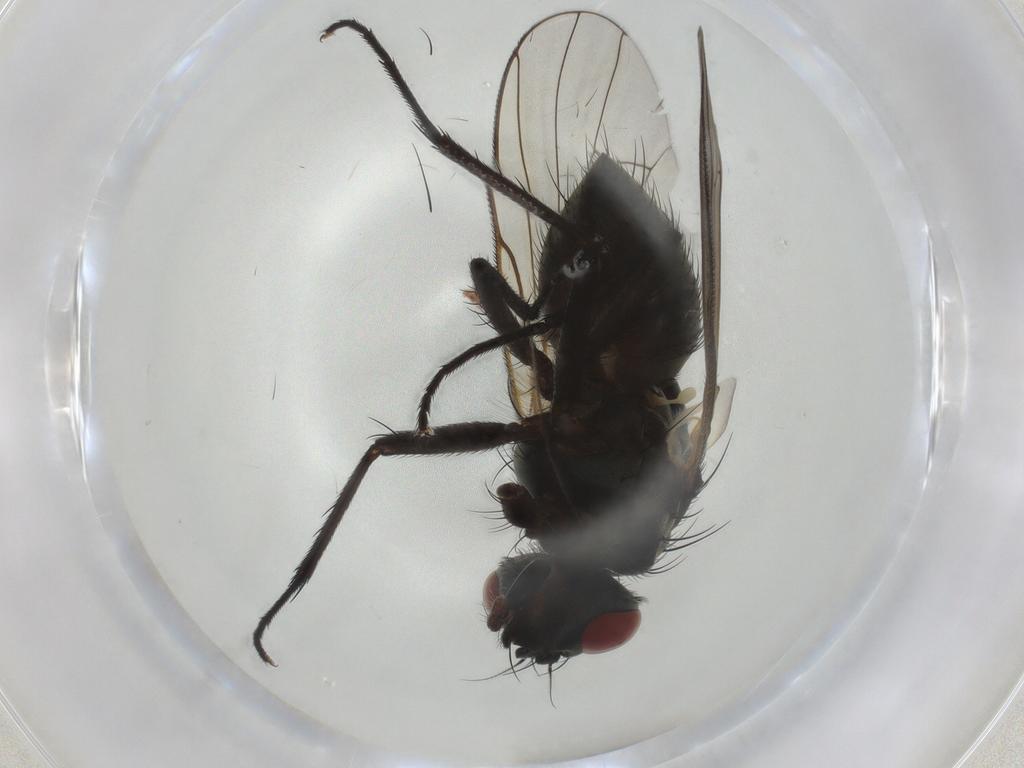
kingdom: Animalia
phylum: Arthropoda
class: Insecta
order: Diptera
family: Muscidae
